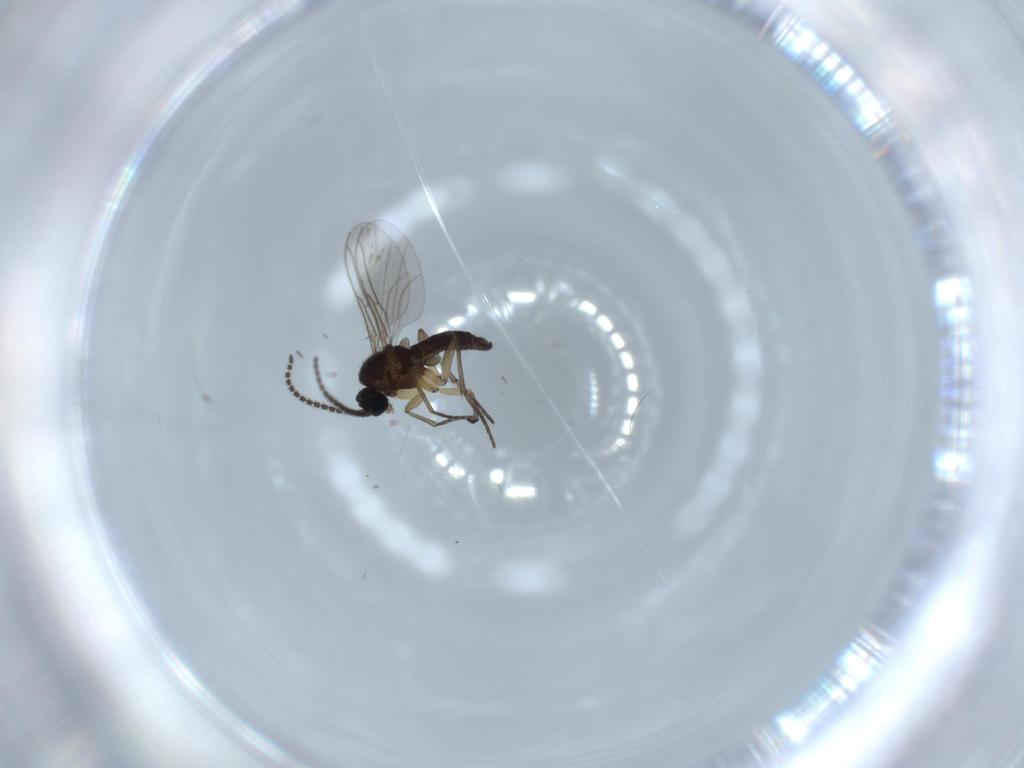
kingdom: Animalia
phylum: Arthropoda
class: Insecta
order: Diptera
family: Sciaridae
